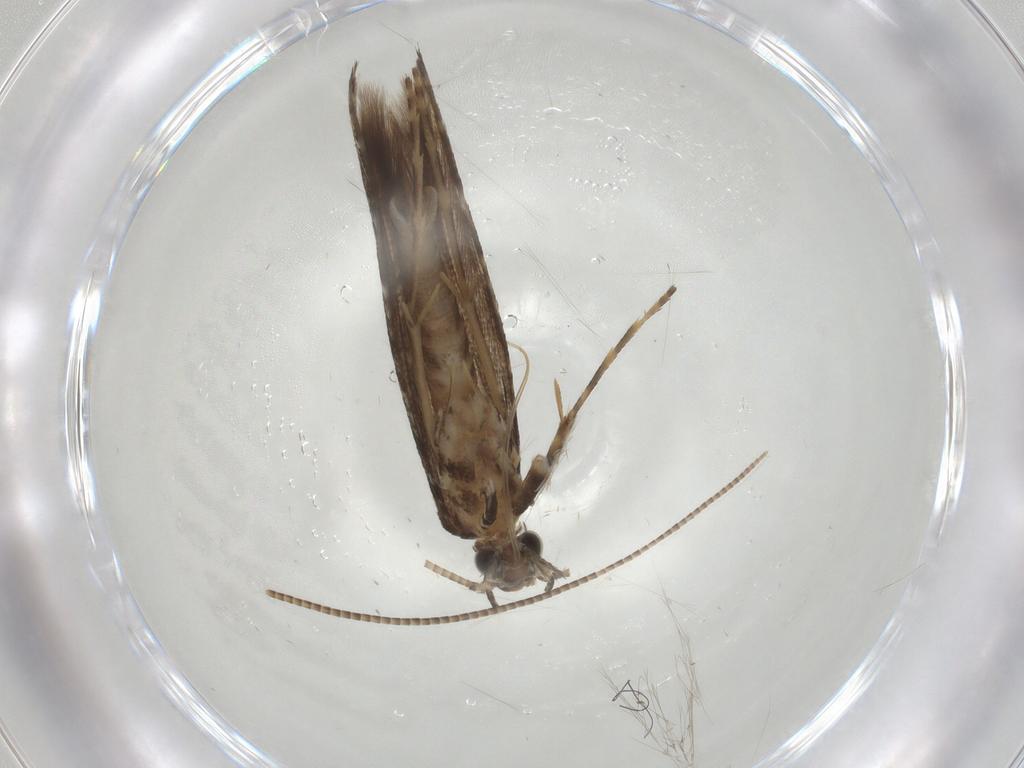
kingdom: Animalia
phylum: Arthropoda
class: Insecta
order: Lepidoptera
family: Gracillariidae
